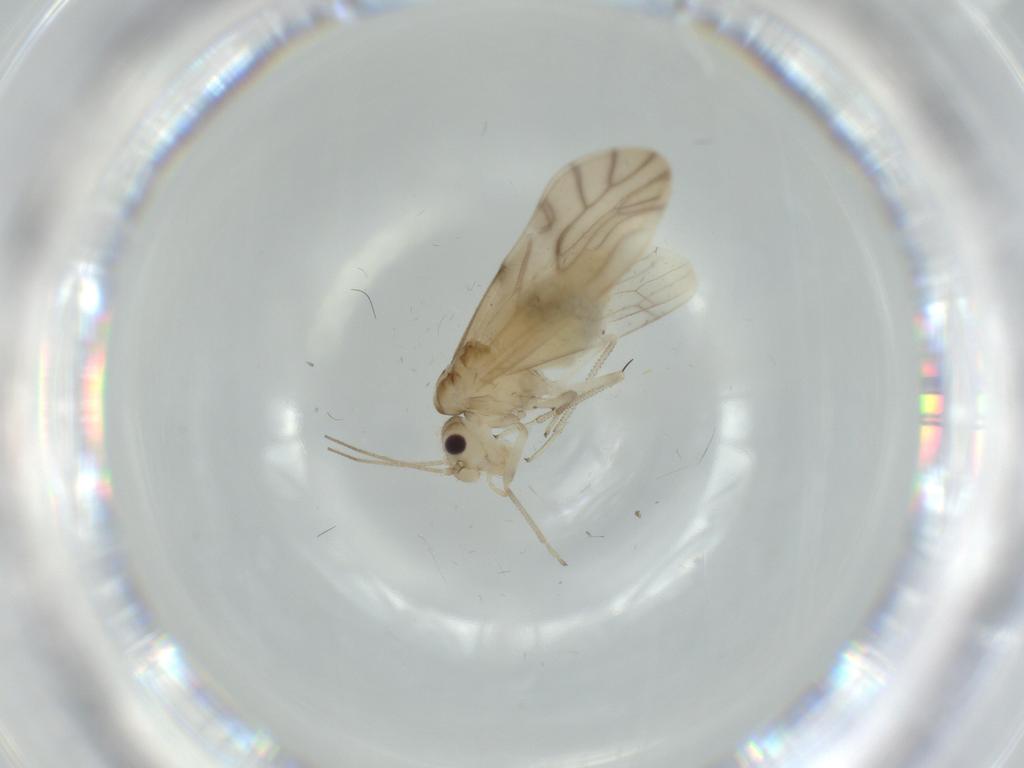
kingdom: Animalia
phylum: Arthropoda
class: Insecta
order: Psocodea
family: Caeciliusidae
